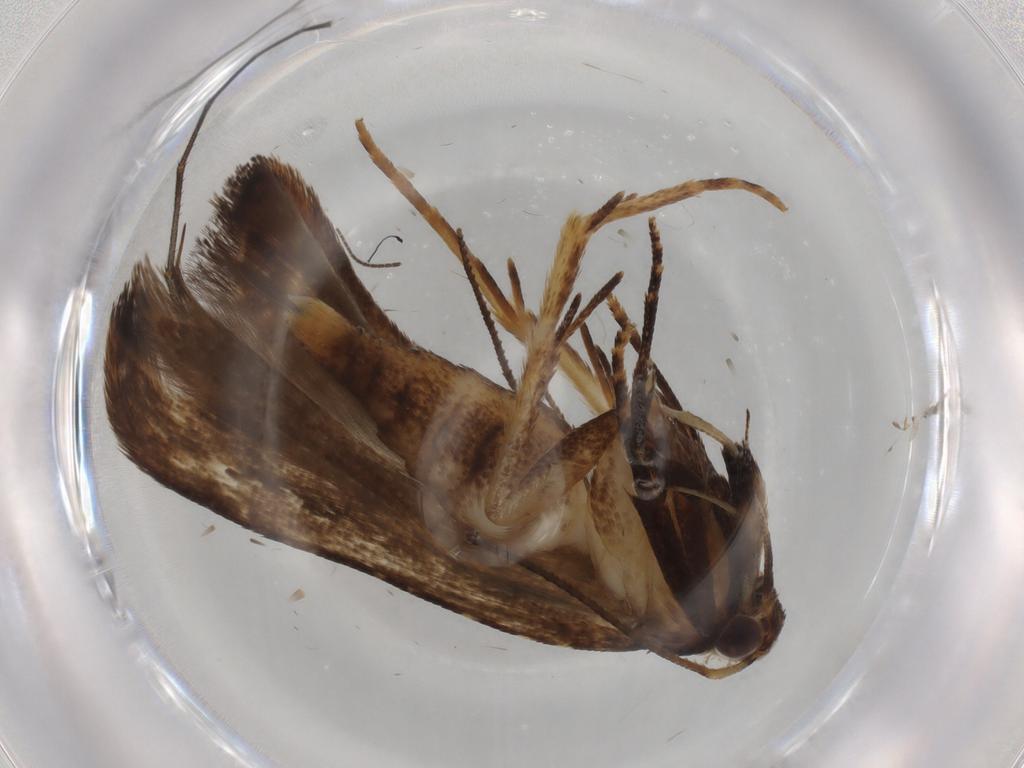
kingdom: Animalia
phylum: Arthropoda
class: Insecta
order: Lepidoptera
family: Gelechiidae
